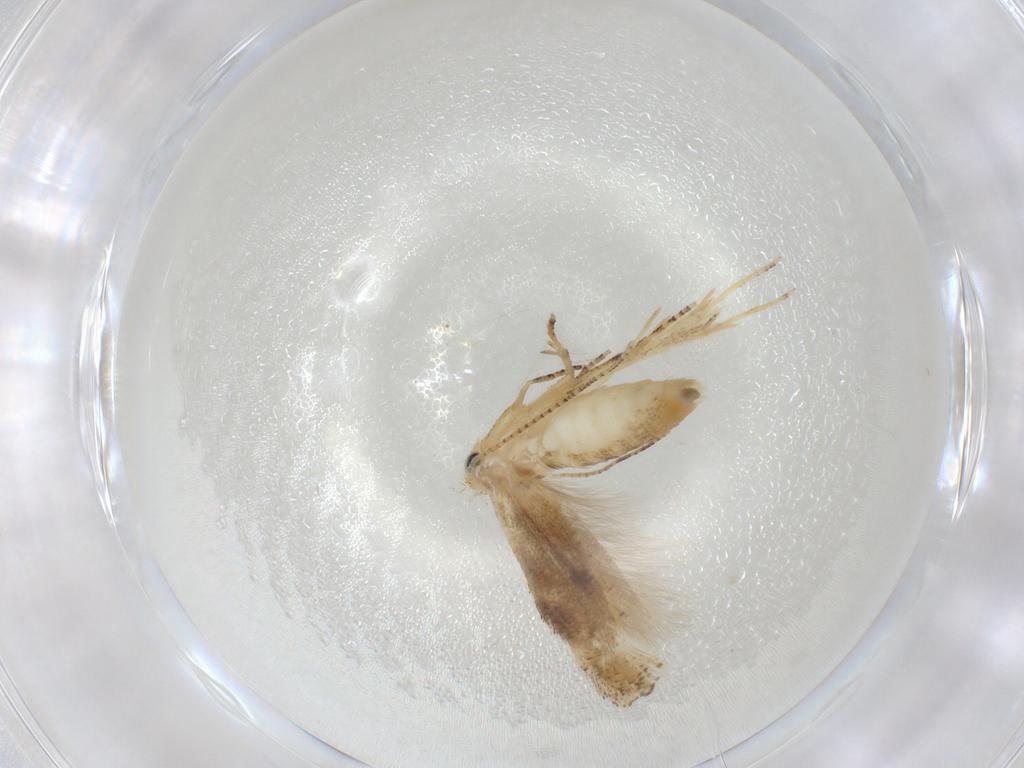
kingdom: Animalia
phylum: Arthropoda
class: Insecta
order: Lepidoptera
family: Bucculatricidae
